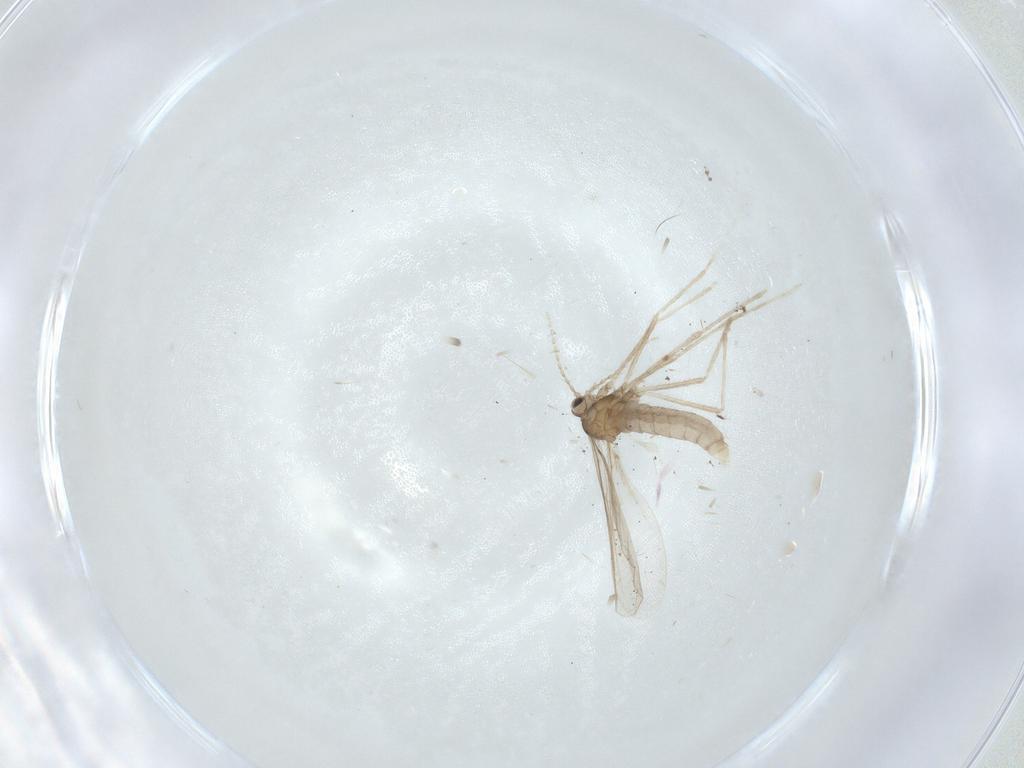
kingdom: Animalia
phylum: Arthropoda
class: Insecta
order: Diptera
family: Cecidomyiidae
